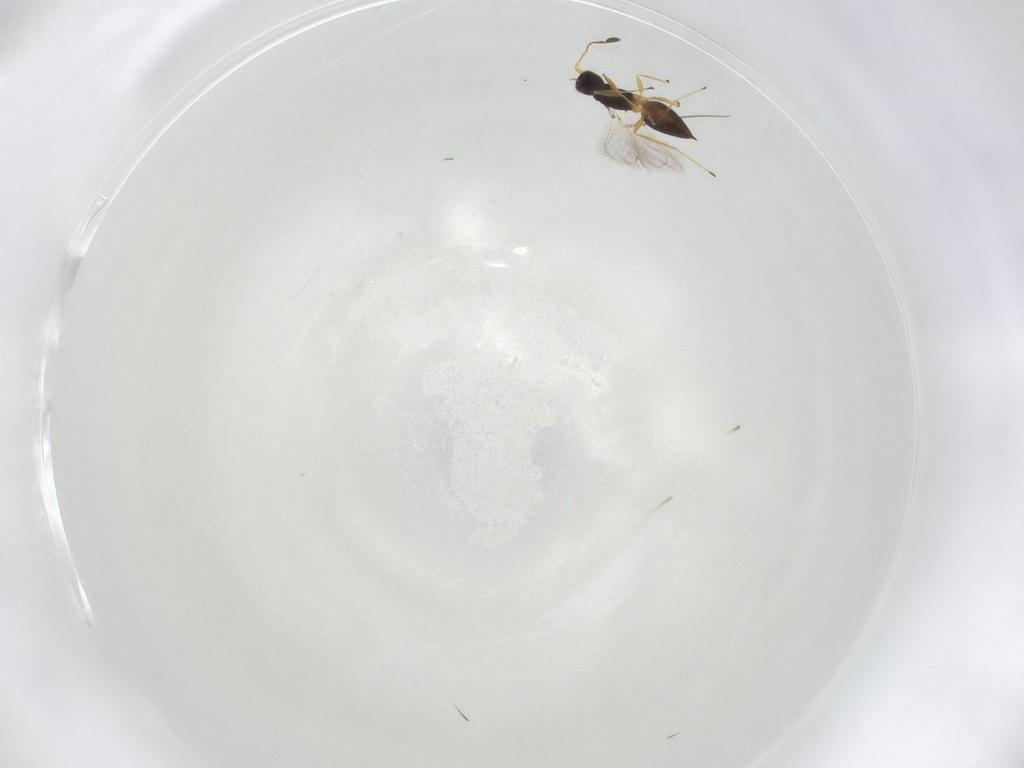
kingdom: Animalia
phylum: Arthropoda
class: Insecta
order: Hymenoptera
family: Mymaridae
